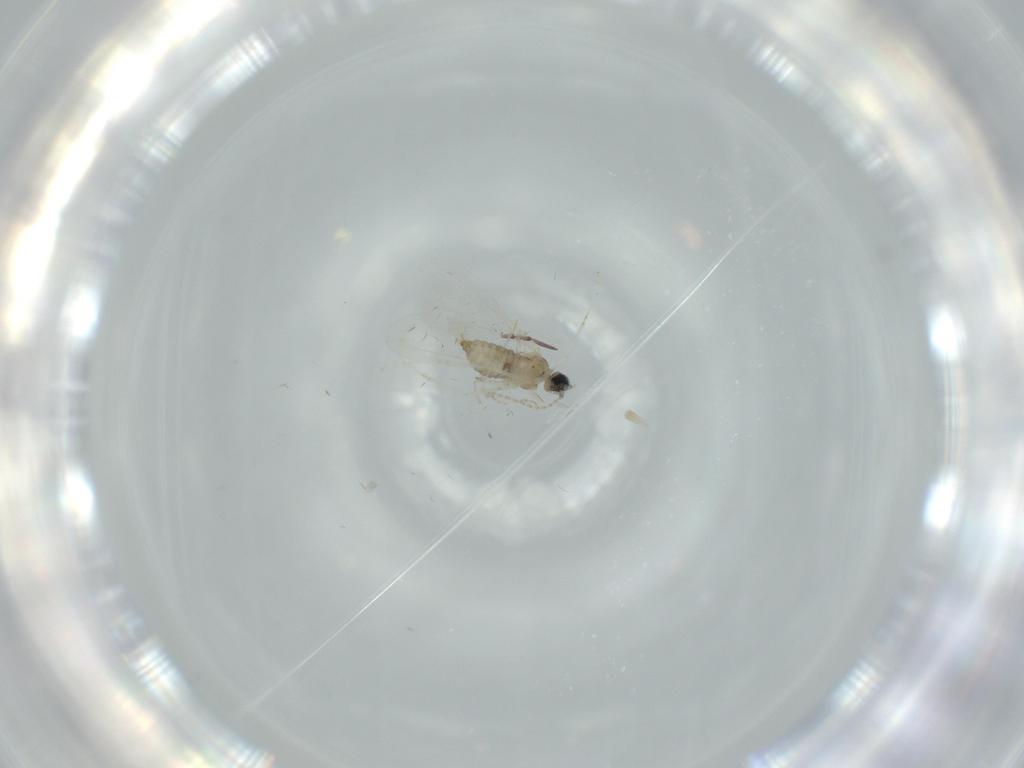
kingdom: Animalia
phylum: Arthropoda
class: Insecta
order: Diptera
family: Cecidomyiidae
